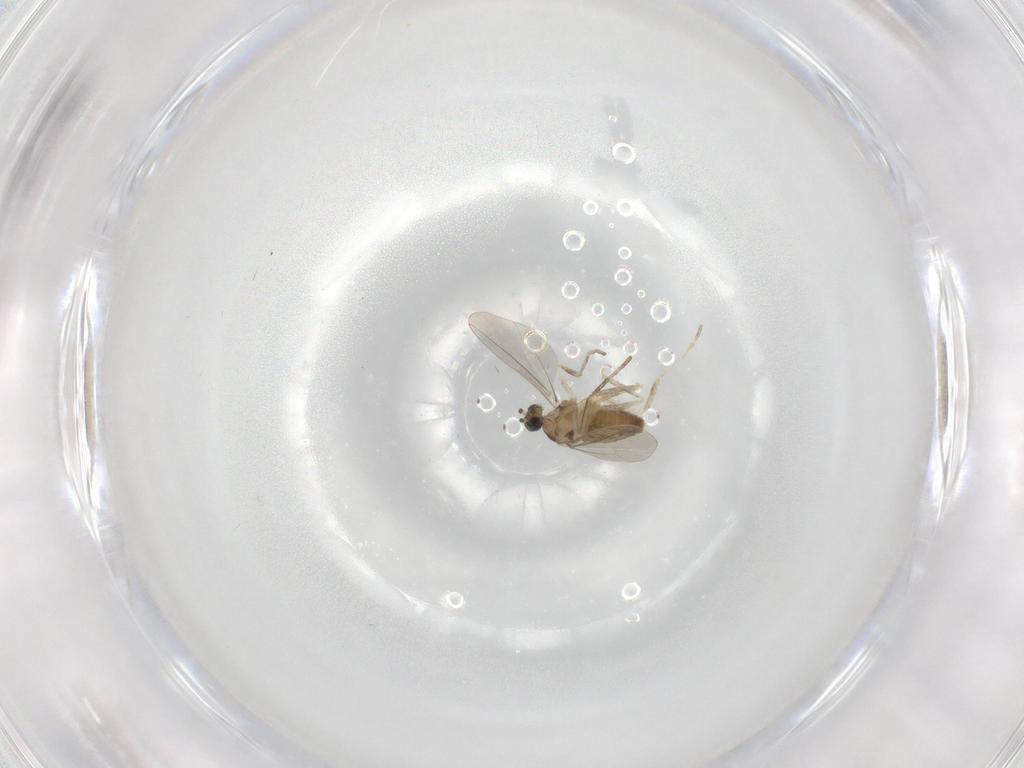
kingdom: Animalia
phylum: Arthropoda
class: Insecta
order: Diptera
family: Cecidomyiidae
